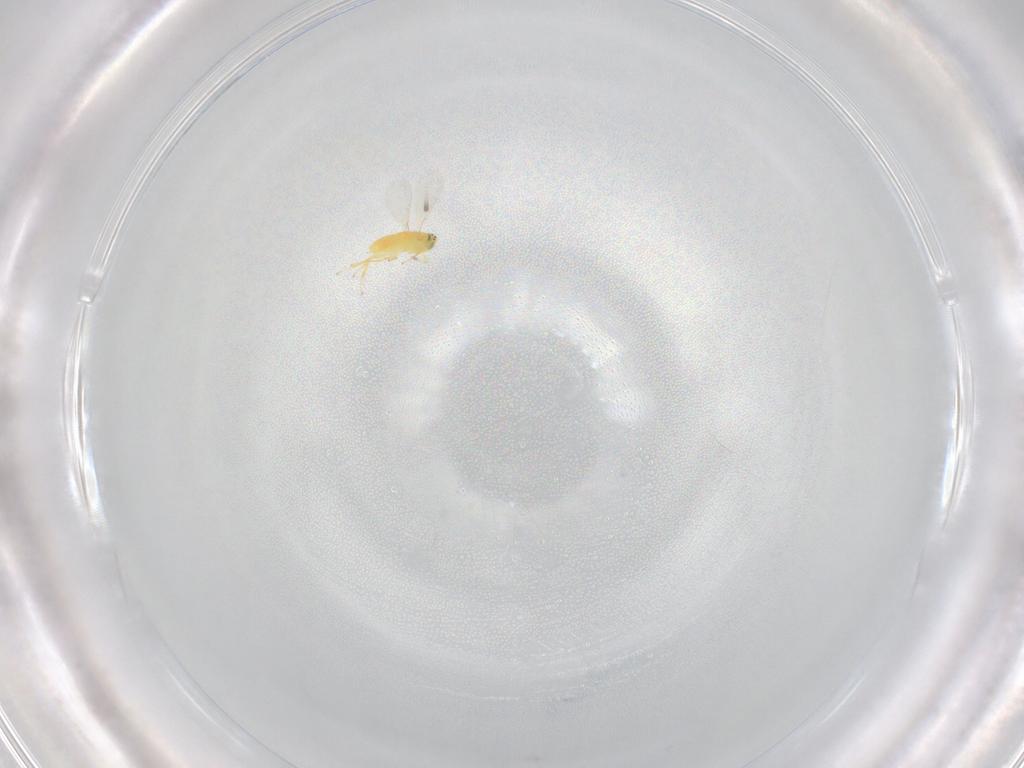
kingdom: Animalia
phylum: Arthropoda
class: Insecta
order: Hymenoptera
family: Aphelinidae
